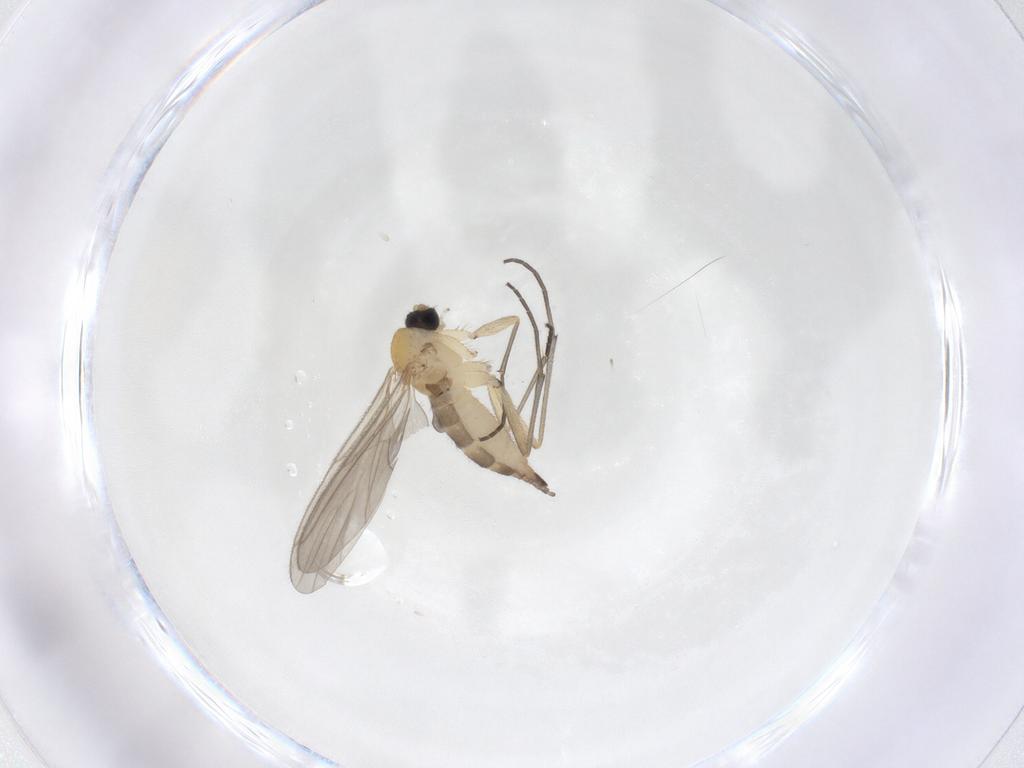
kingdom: Animalia
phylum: Arthropoda
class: Insecta
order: Diptera
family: Sciaridae
